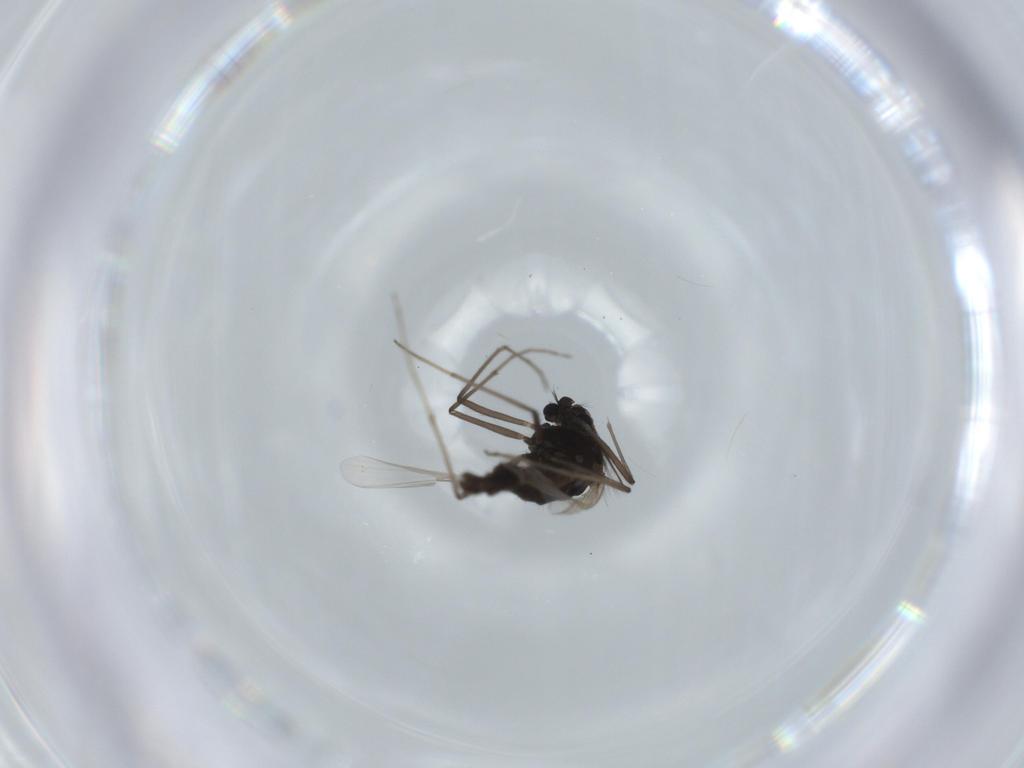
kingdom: Animalia
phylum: Arthropoda
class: Insecta
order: Diptera
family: Chironomidae
